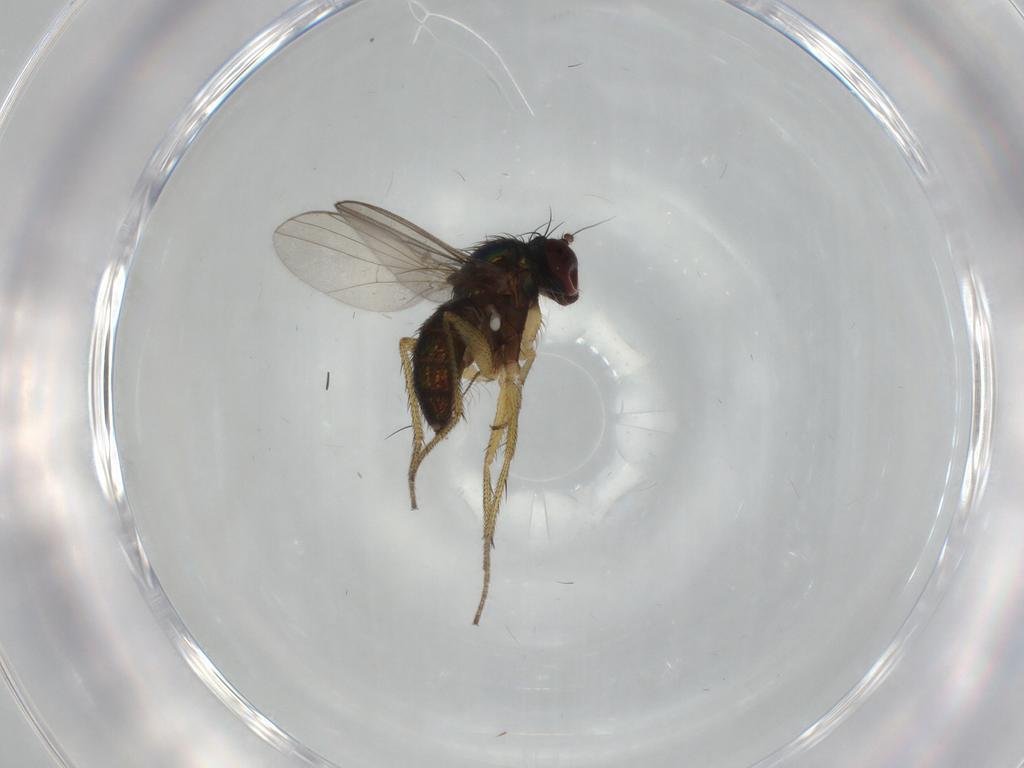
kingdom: Animalia
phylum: Arthropoda
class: Insecta
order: Diptera
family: Dolichopodidae
